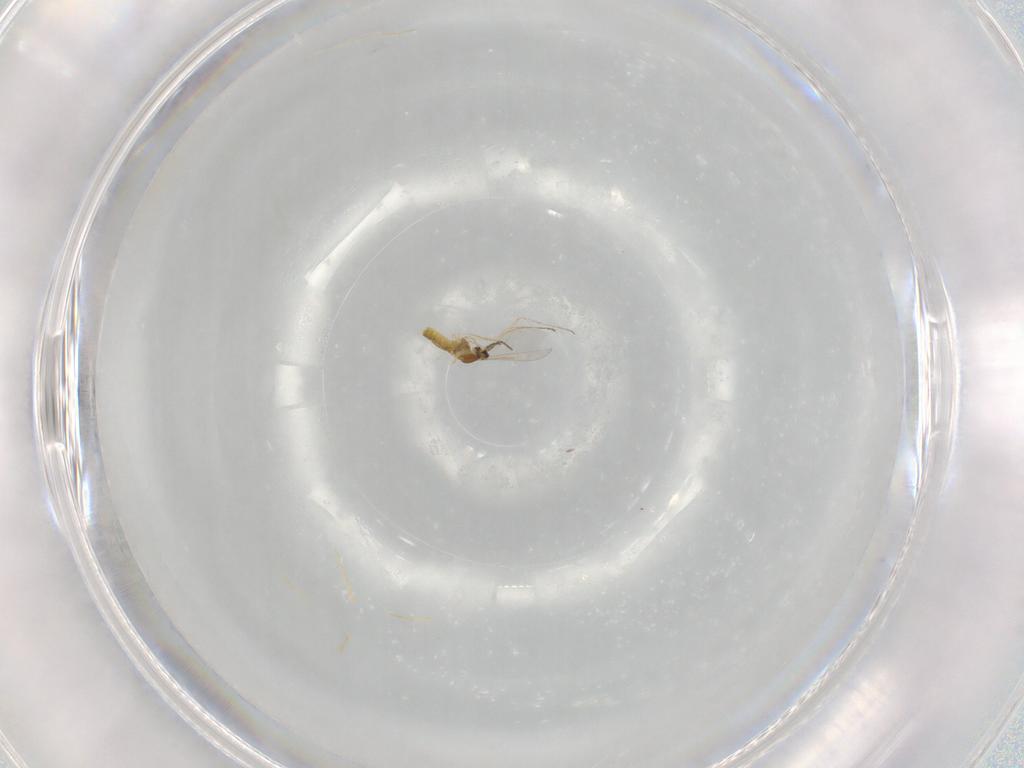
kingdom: Animalia
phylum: Arthropoda
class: Insecta
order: Diptera
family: Cecidomyiidae
